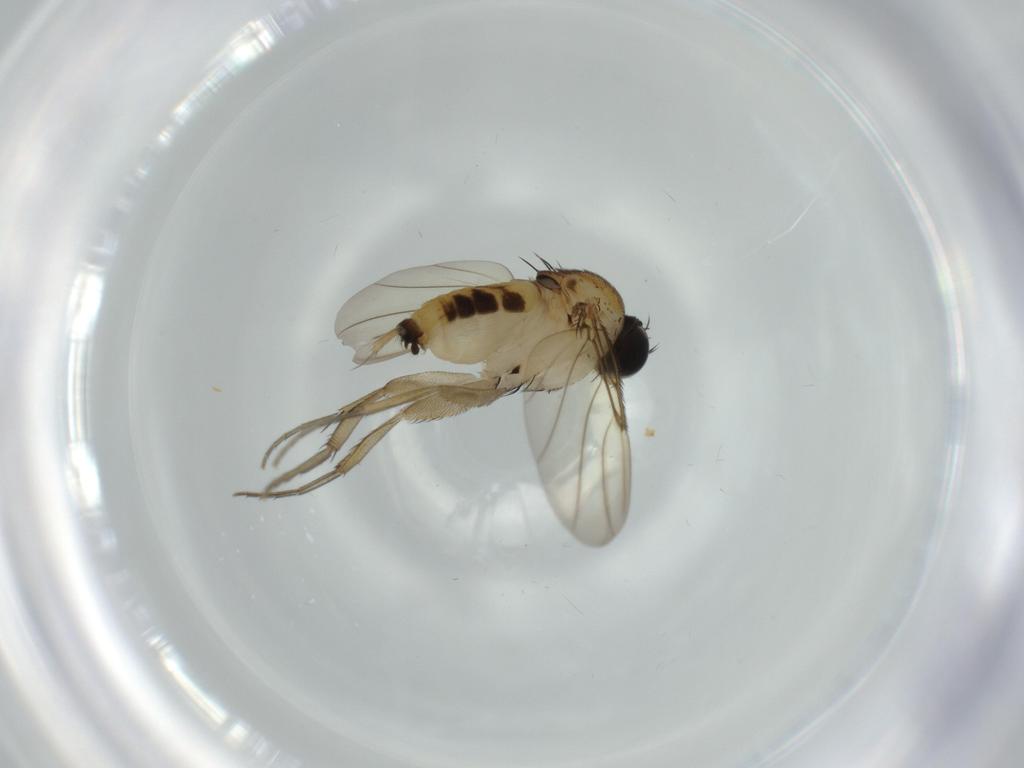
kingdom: Animalia
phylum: Arthropoda
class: Insecta
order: Diptera
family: Phoridae
